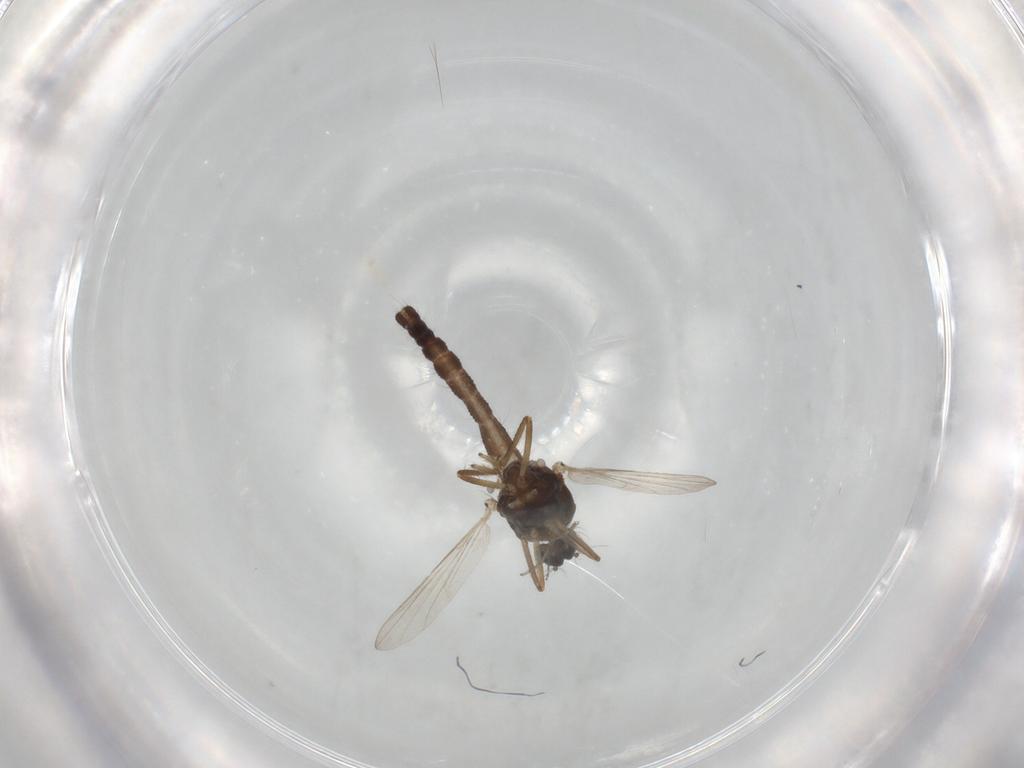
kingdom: Animalia
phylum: Arthropoda
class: Insecta
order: Diptera
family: Ceratopogonidae
